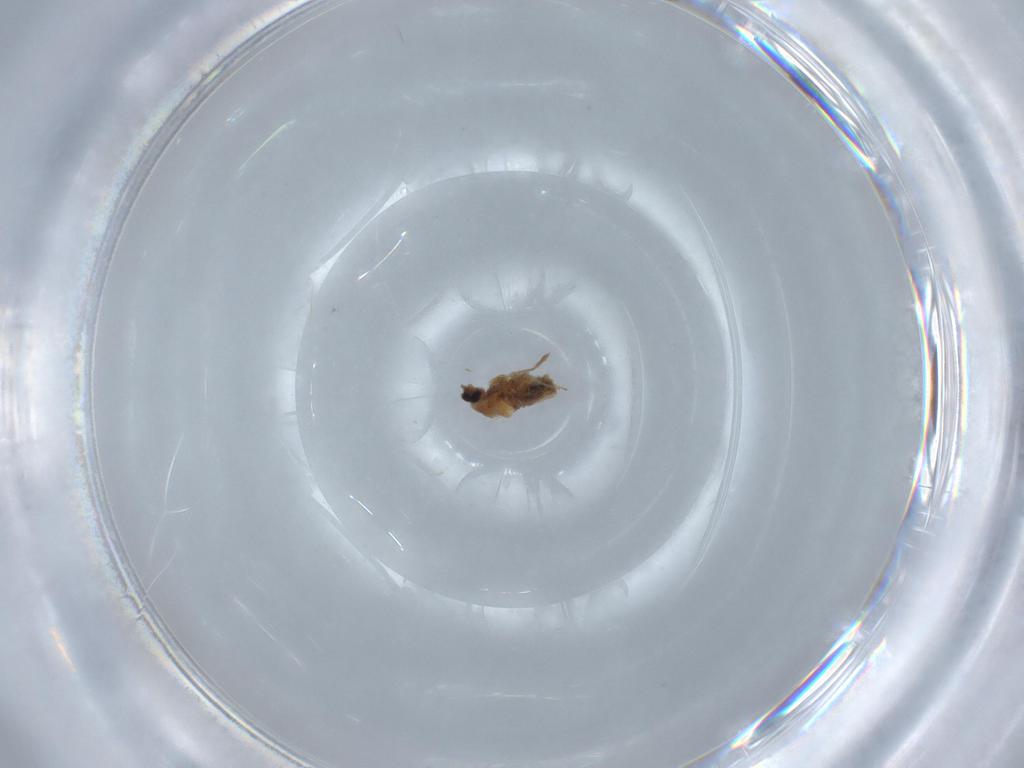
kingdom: Animalia
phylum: Arthropoda
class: Insecta
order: Diptera
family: Cecidomyiidae
